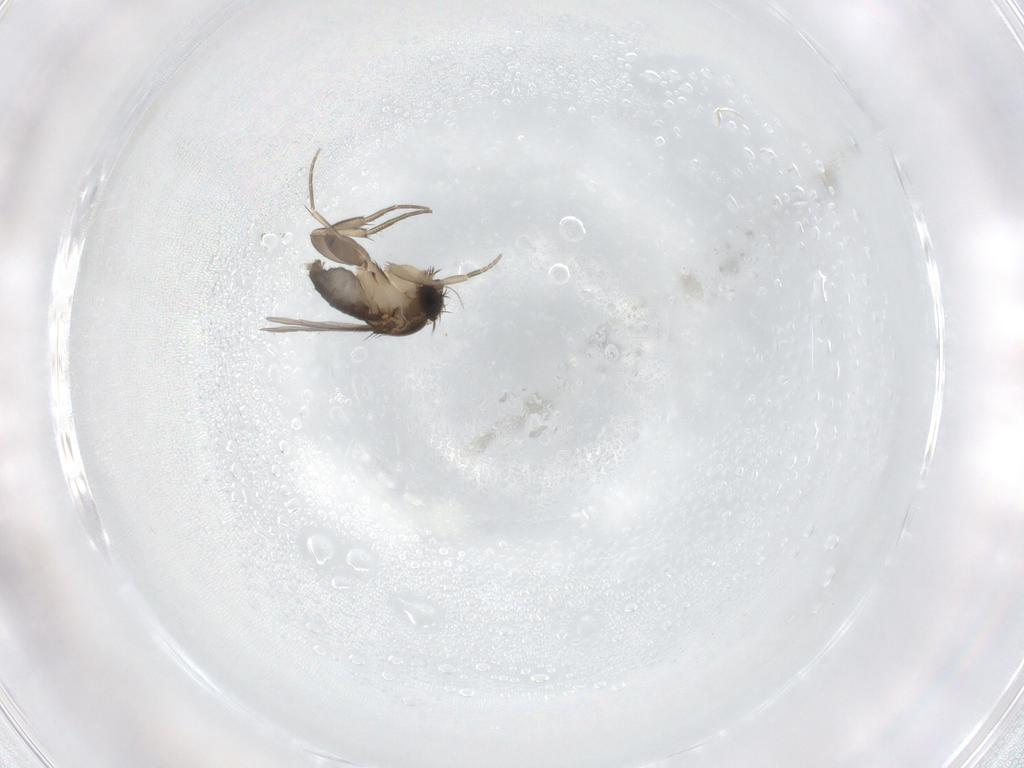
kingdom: Animalia
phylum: Arthropoda
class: Insecta
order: Diptera
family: Phoridae
